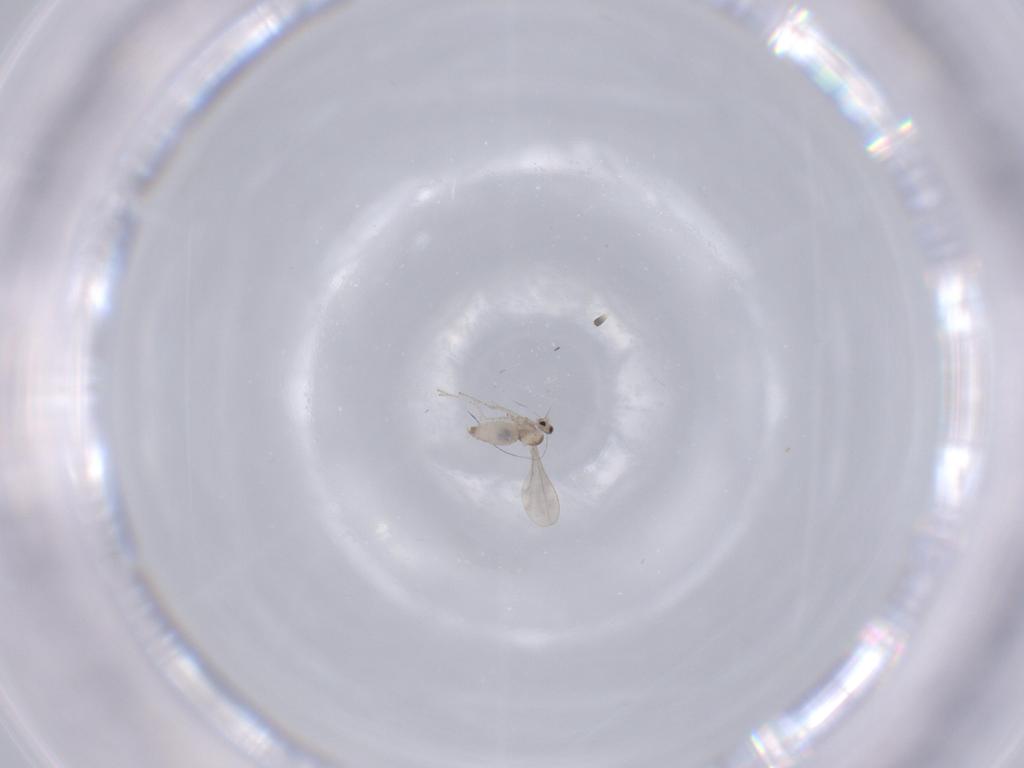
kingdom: Animalia
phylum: Arthropoda
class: Insecta
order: Diptera
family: Cecidomyiidae
